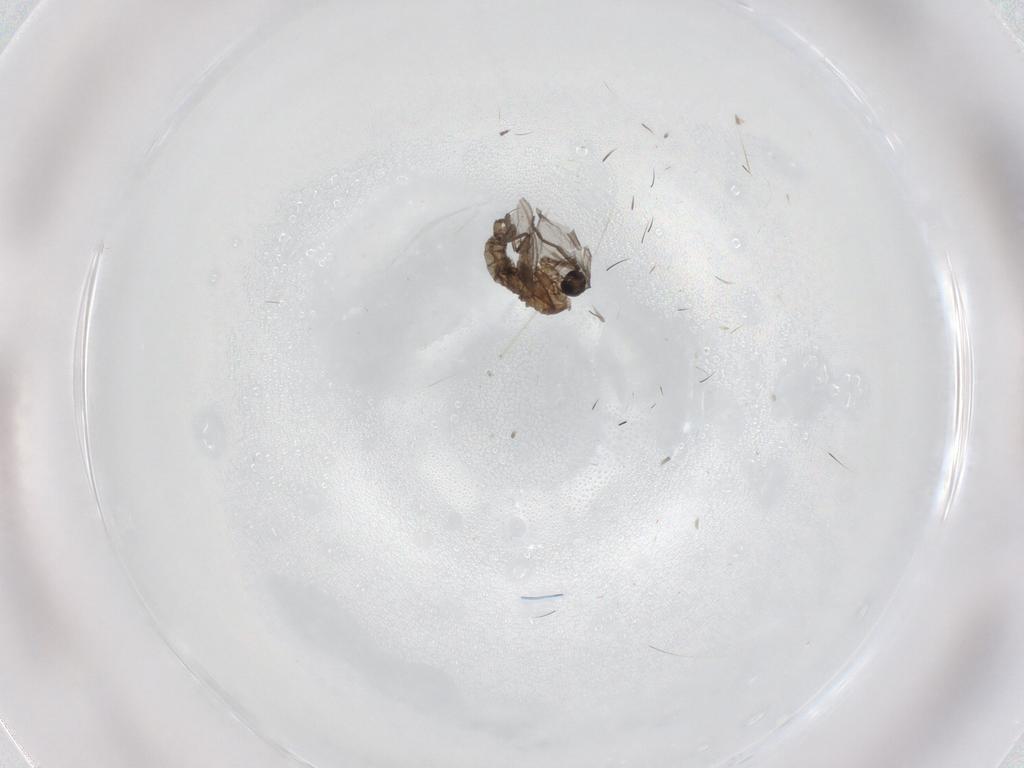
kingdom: Animalia
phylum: Arthropoda
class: Insecta
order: Diptera
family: Sciaridae
